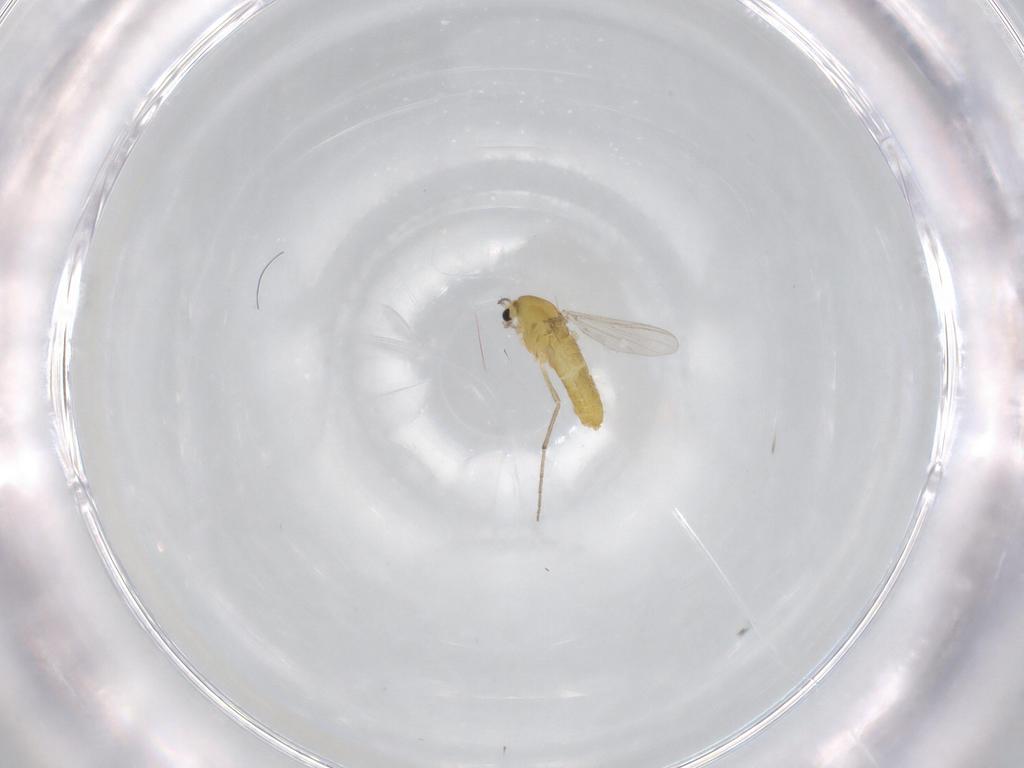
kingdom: Animalia
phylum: Arthropoda
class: Insecta
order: Diptera
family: Chironomidae
